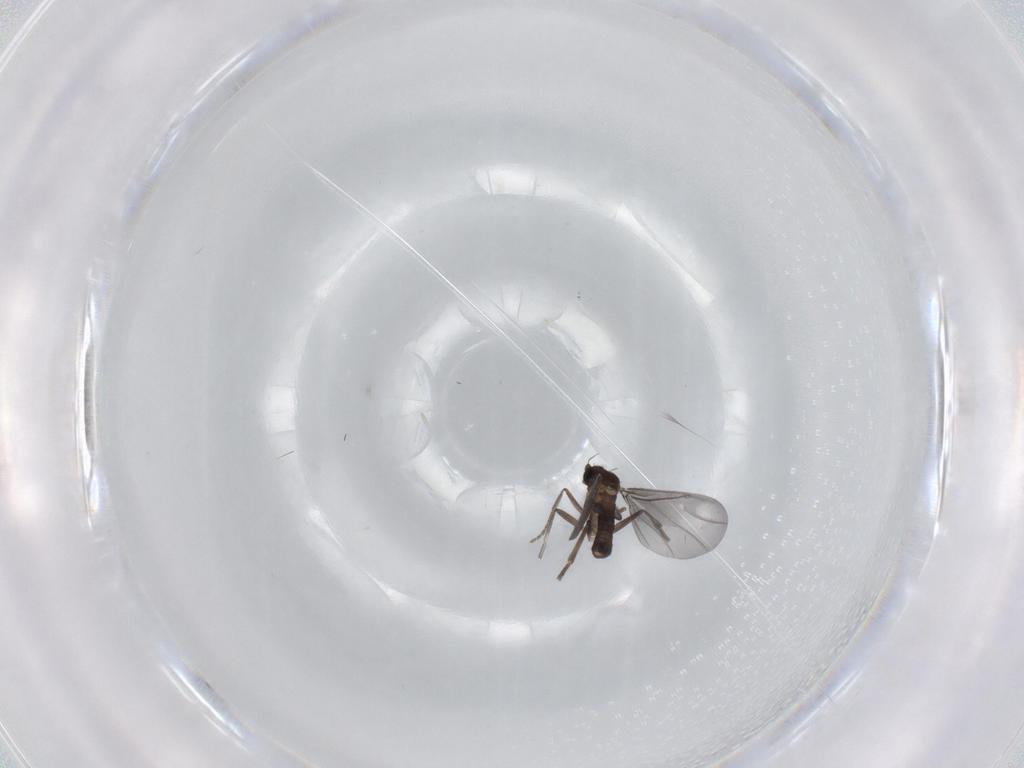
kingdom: Animalia
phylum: Arthropoda
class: Insecta
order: Diptera
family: Phoridae
